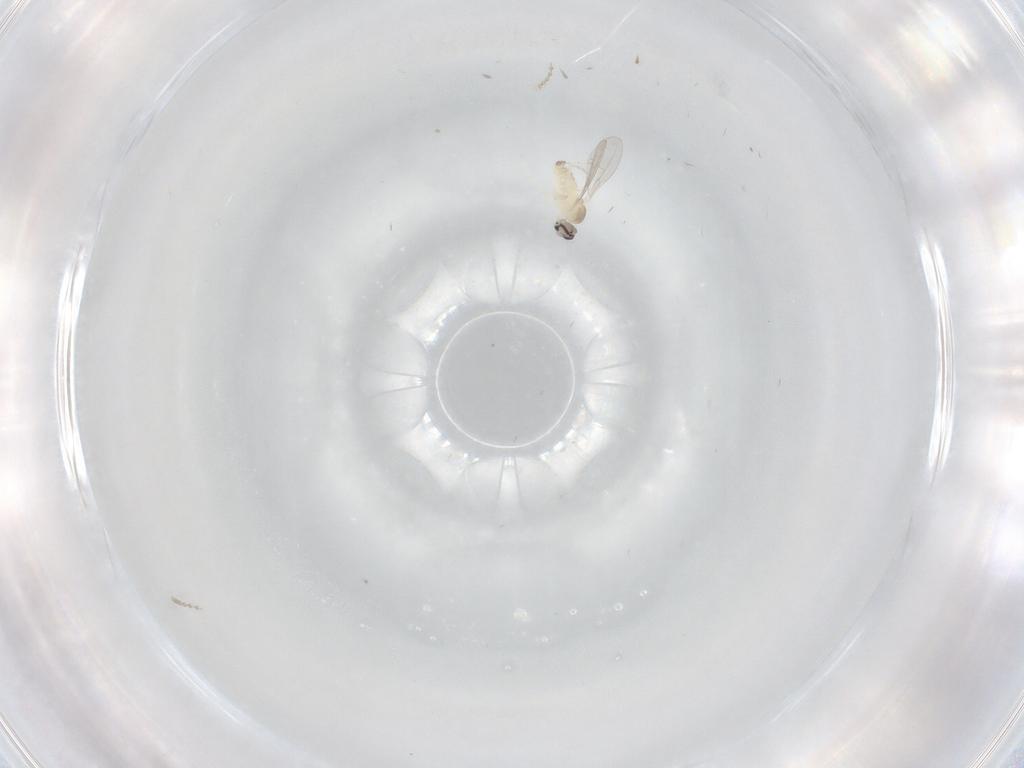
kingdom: Animalia
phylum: Arthropoda
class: Insecta
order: Diptera
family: Cecidomyiidae
